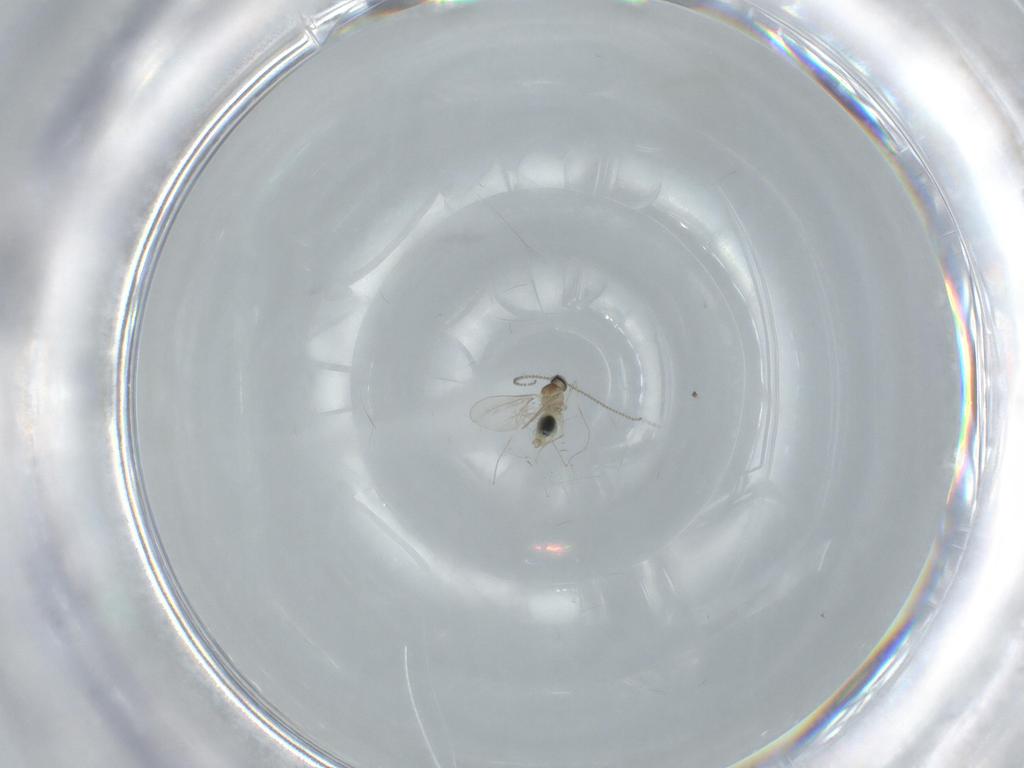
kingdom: Animalia
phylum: Arthropoda
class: Insecta
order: Diptera
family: Cecidomyiidae
